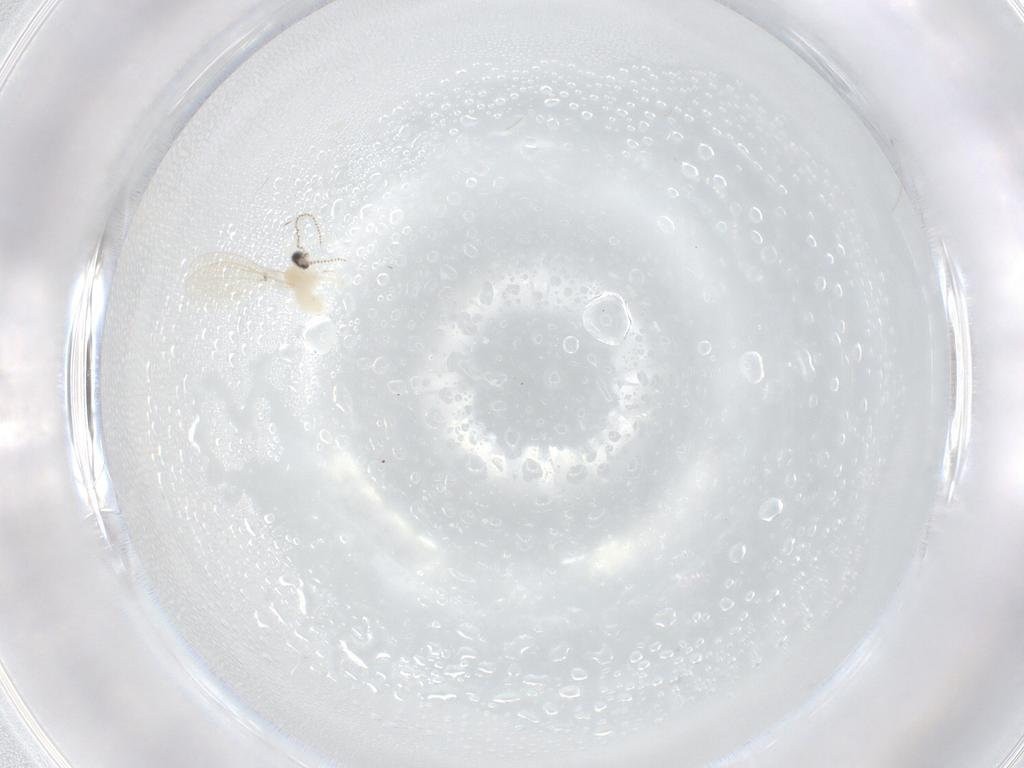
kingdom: Animalia
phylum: Arthropoda
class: Insecta
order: Diptera
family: Cecidomyiidae
